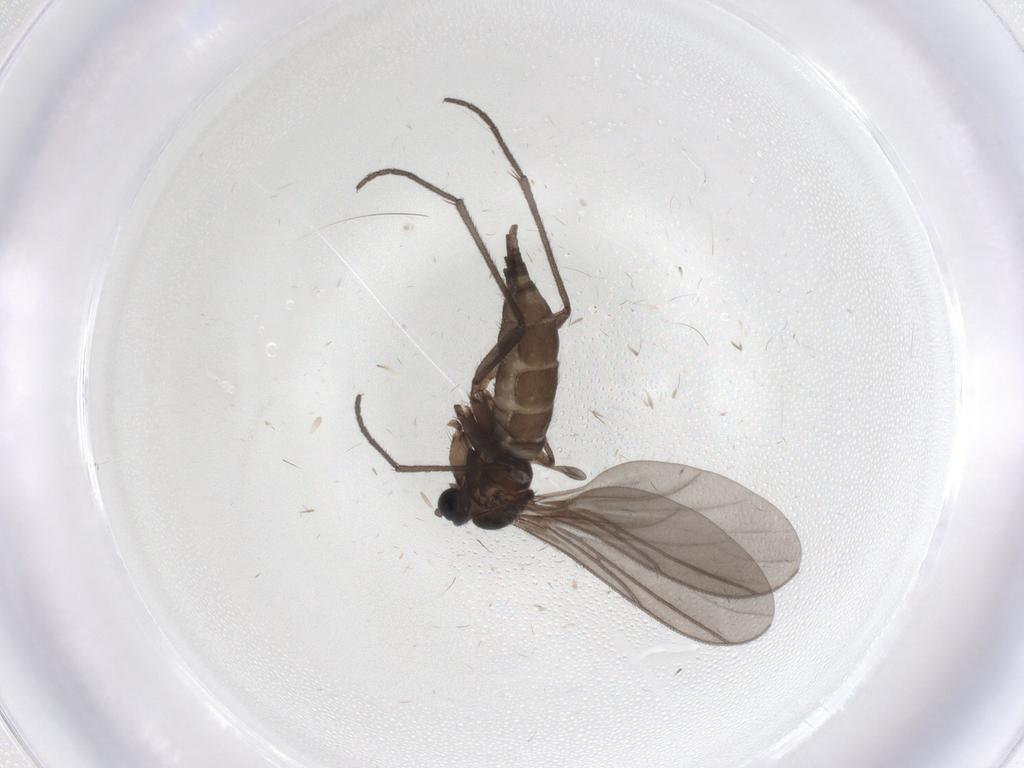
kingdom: Animalia
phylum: Arthropoda
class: Insecta
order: Diptera
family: Sciaridae
